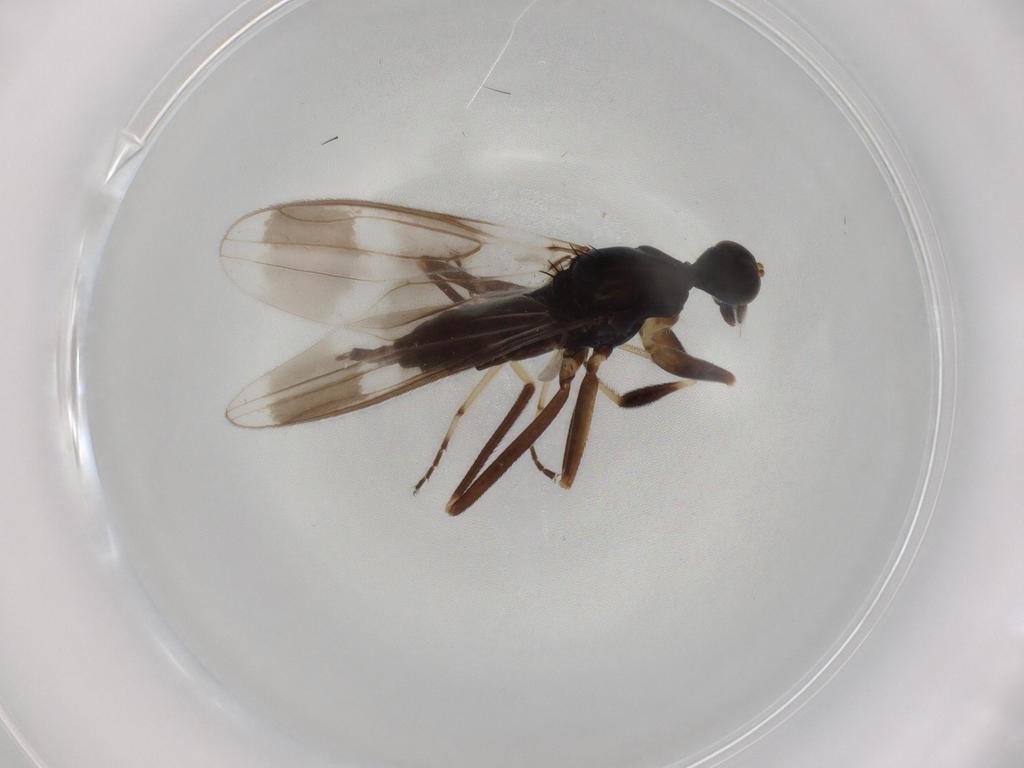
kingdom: Animalia
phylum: Arthropoda
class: Insecta
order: Diptera
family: Hybotidae
